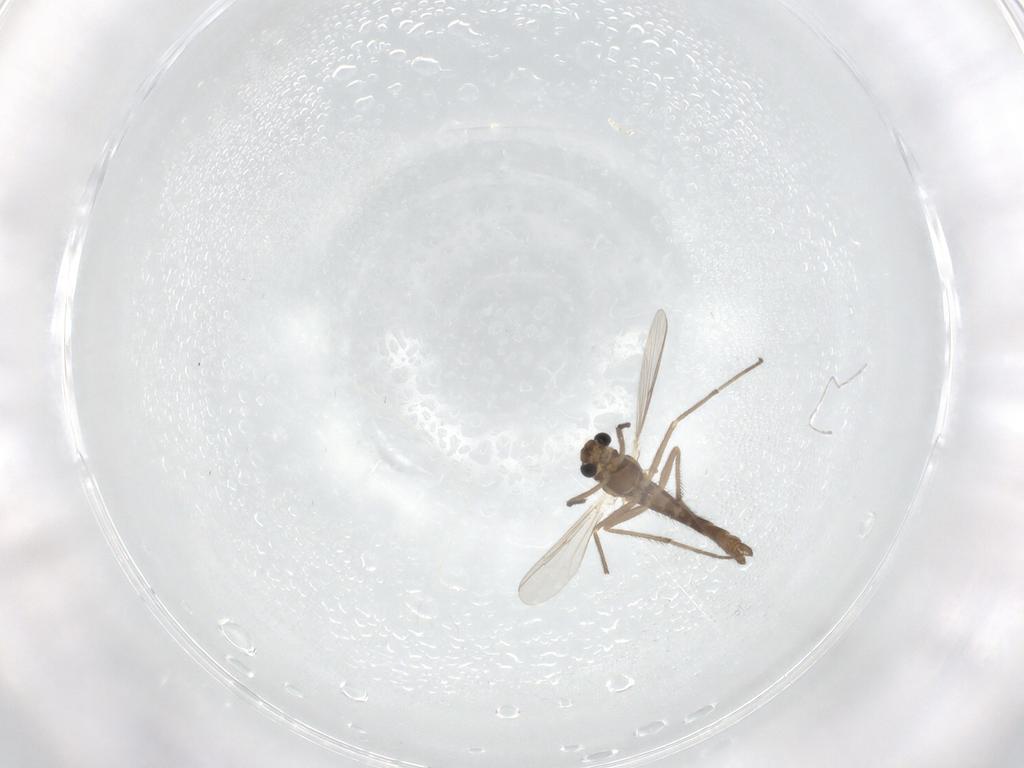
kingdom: Animalia
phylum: Arthropoda
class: Insecta
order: Diptera
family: Chironomidae
